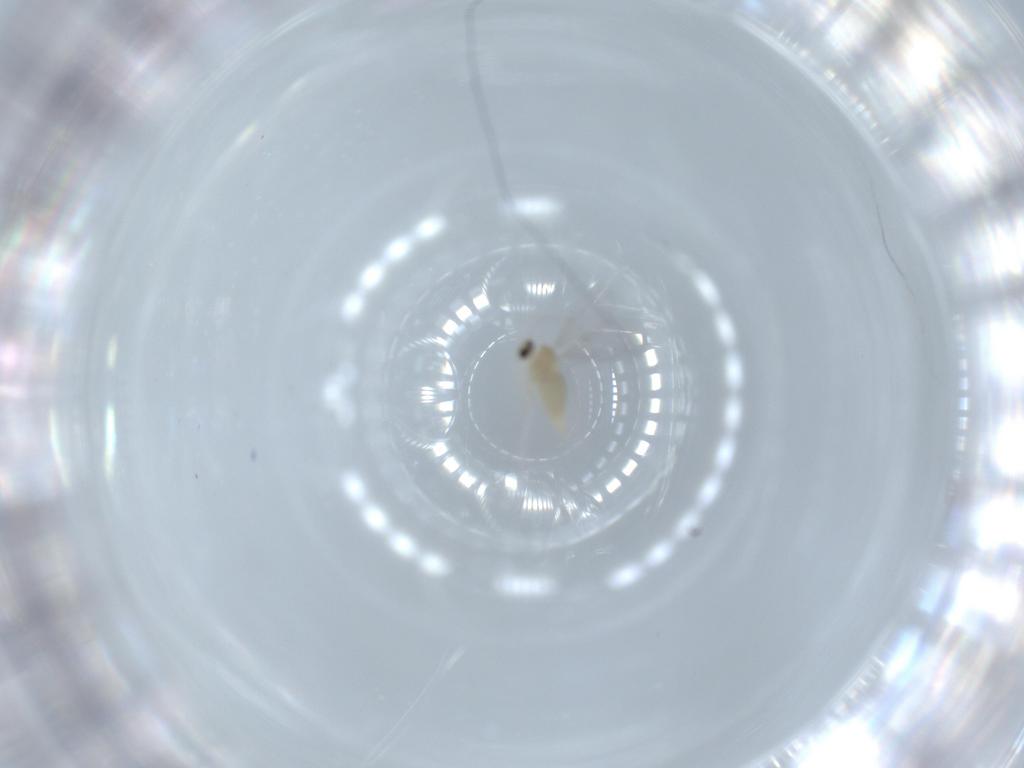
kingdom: Animalia
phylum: Arthropoda
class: Insecta
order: Diptera
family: Cecidomyiidae
